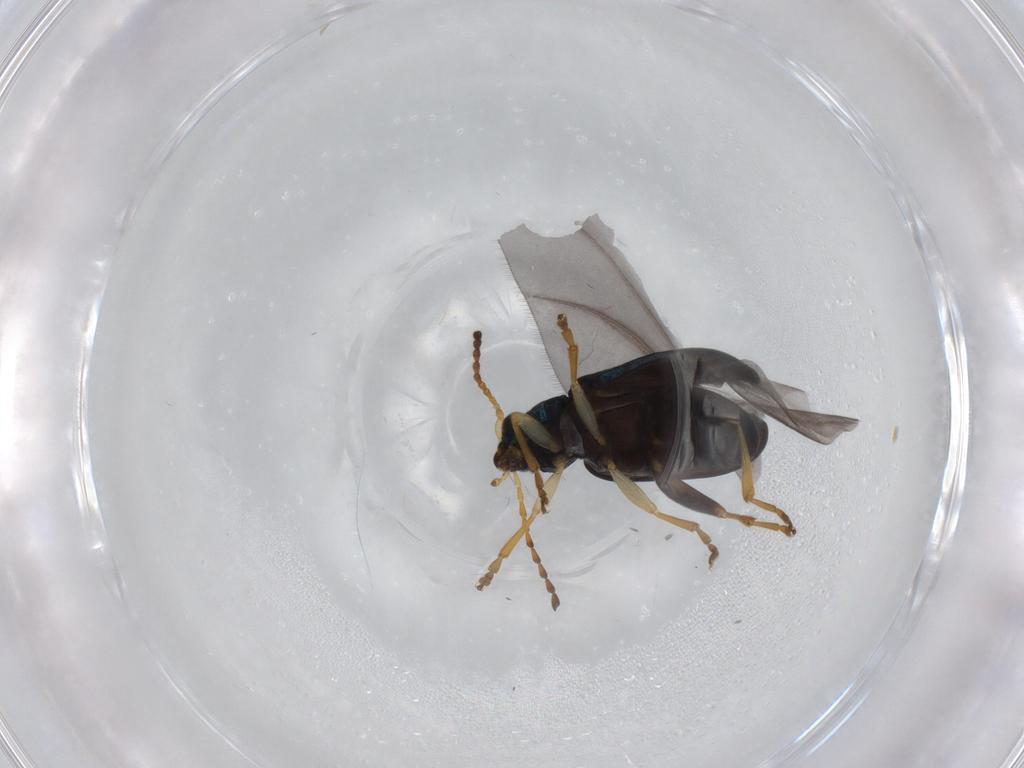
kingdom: Animalia
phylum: Arthropoda
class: Insecta
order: Coleoptera
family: Chrysomelidae
